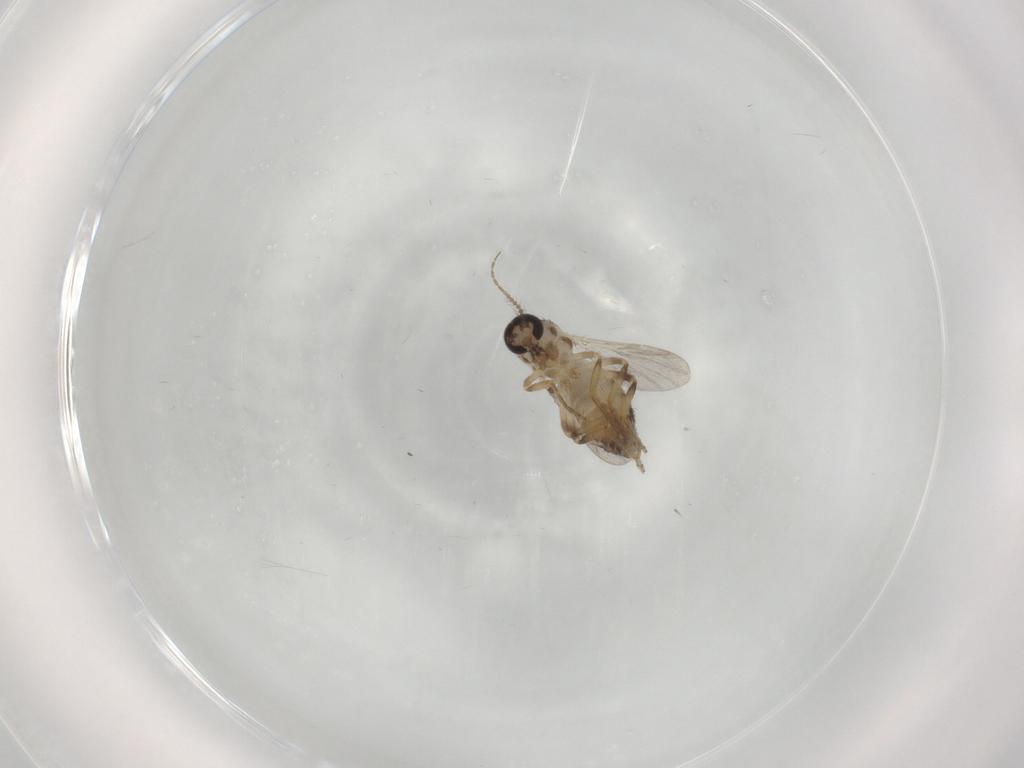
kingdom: Animalia
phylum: Arthropoda
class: Insecta
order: Diptera
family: Ceratopogonidae
